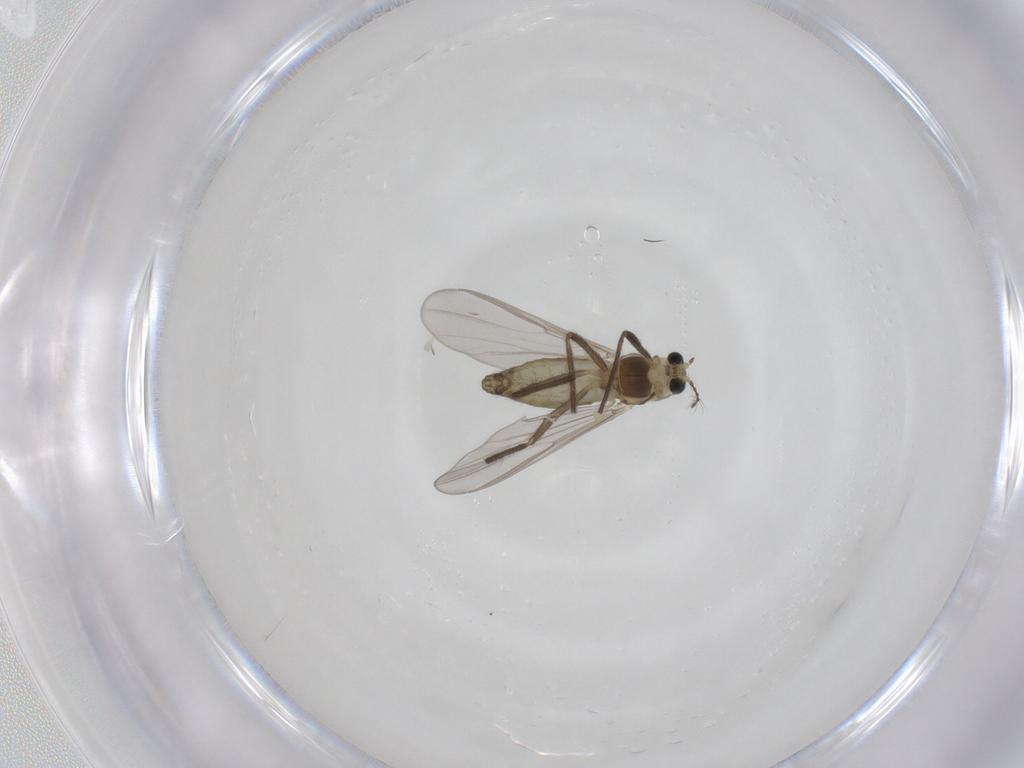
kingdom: Animalia
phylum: Arthropoda
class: Insecta
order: Diptera
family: Chironomidae
